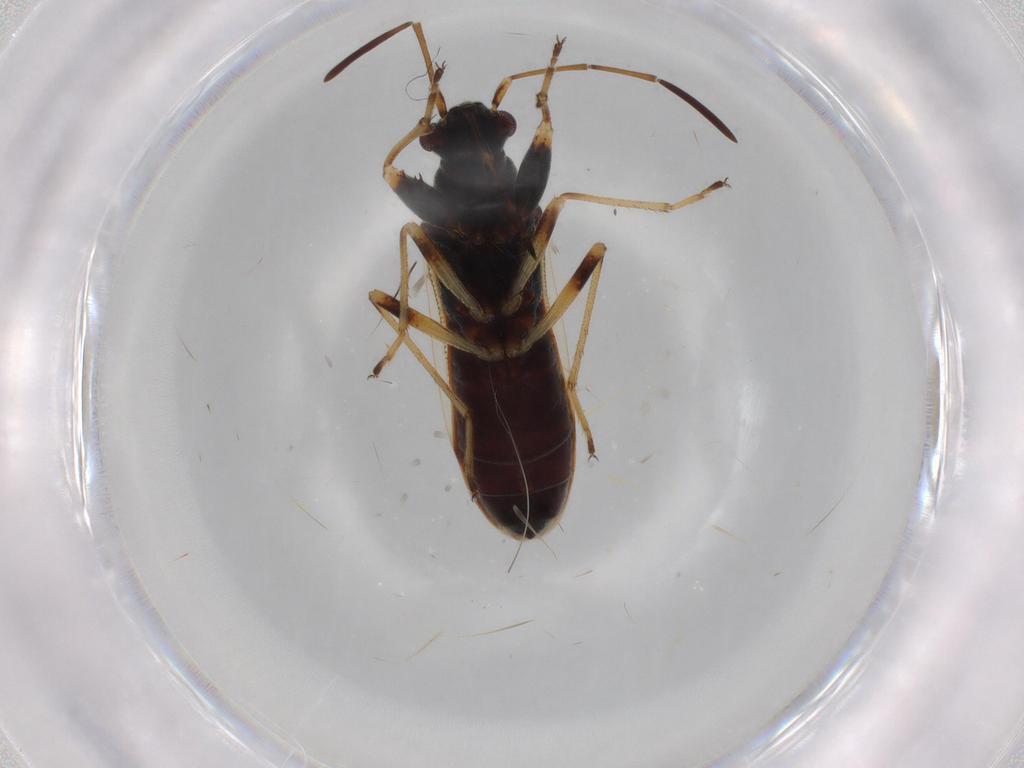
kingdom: Animalia
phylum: Arthropoda
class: Insecta
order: Hemiptera
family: Rhyparochromidae
